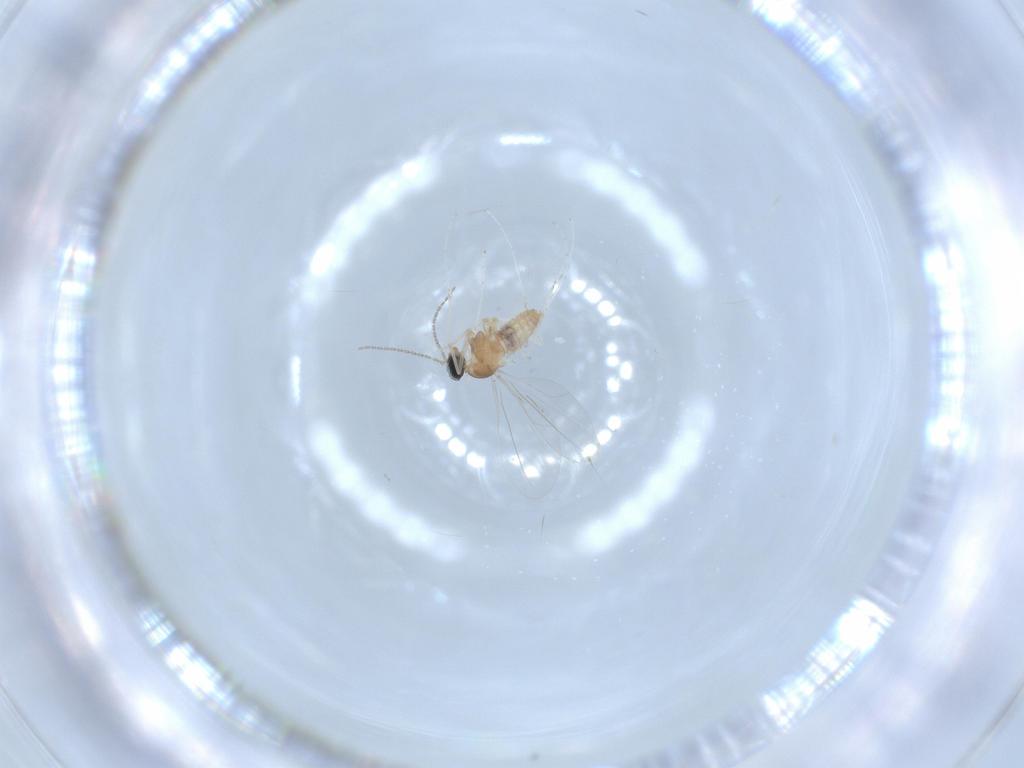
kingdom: Animalia
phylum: Arthropoda
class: Insecta
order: Diptera
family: Cecidomyiidae
